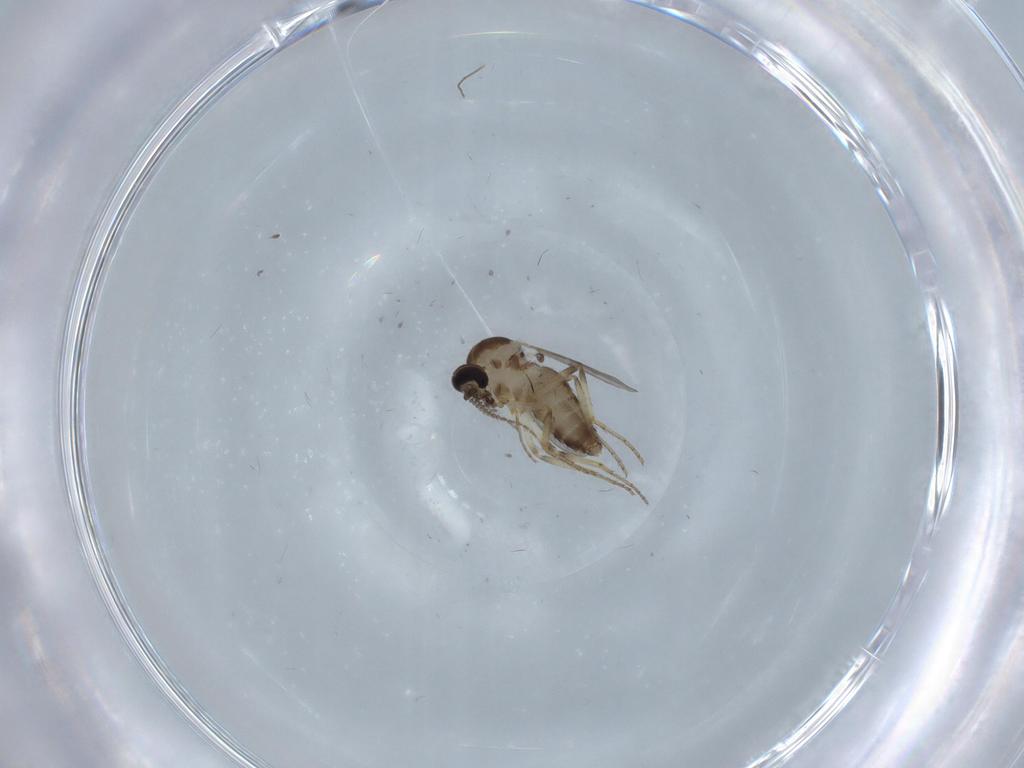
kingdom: Animalia
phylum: Arthropoda
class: Insecta
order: Diptera
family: Ceratopogonidae
